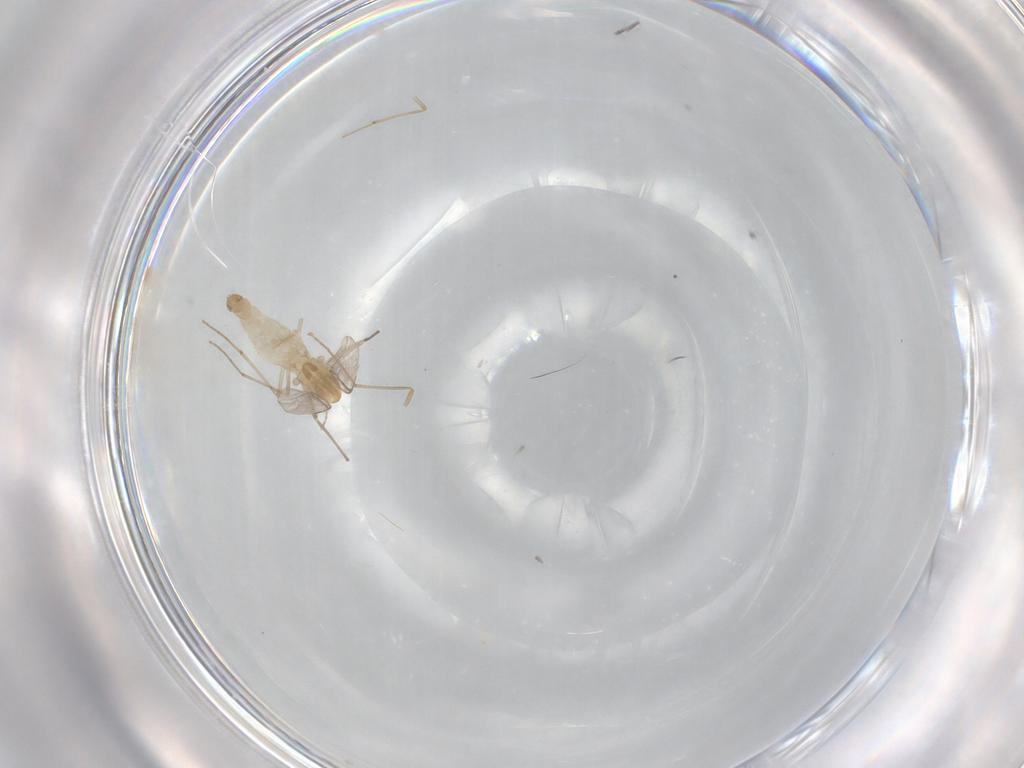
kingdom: Animalia
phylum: Arthropoda
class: Insecta
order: Diptera
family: Chironomidae
